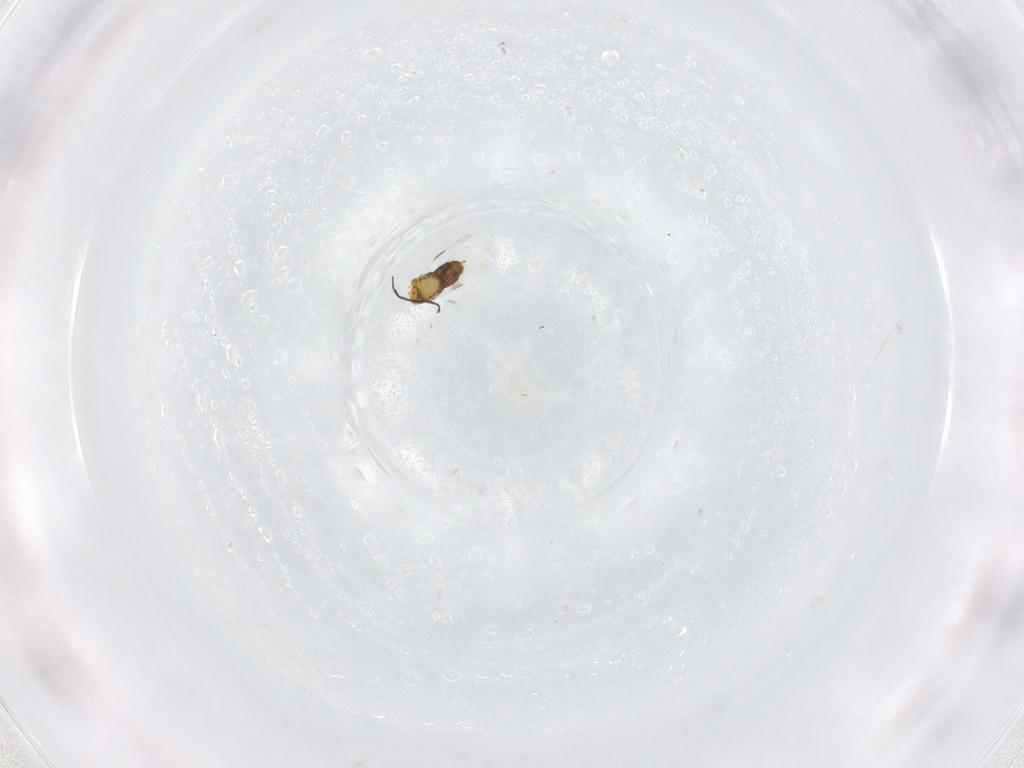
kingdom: Animalia
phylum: Arthropoda
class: Insecta
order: Hymenoptera
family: Aphelinidae
